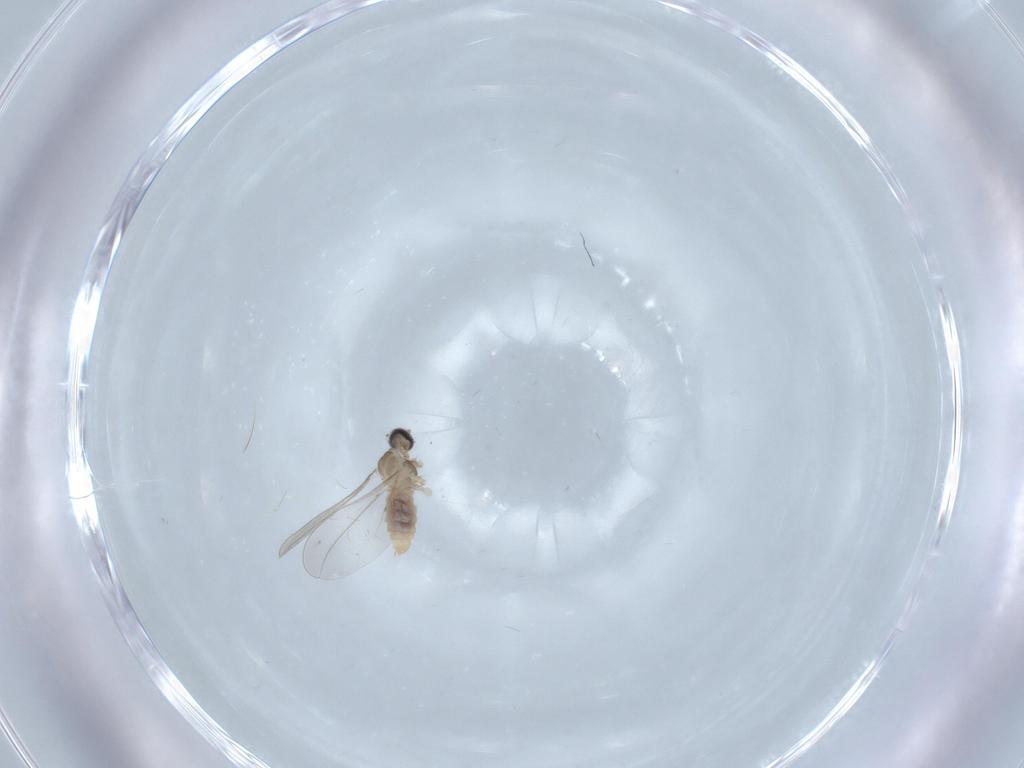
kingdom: Animalia
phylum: Arthropoda
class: Insecta
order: Diptera
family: Cecidomyiidae
